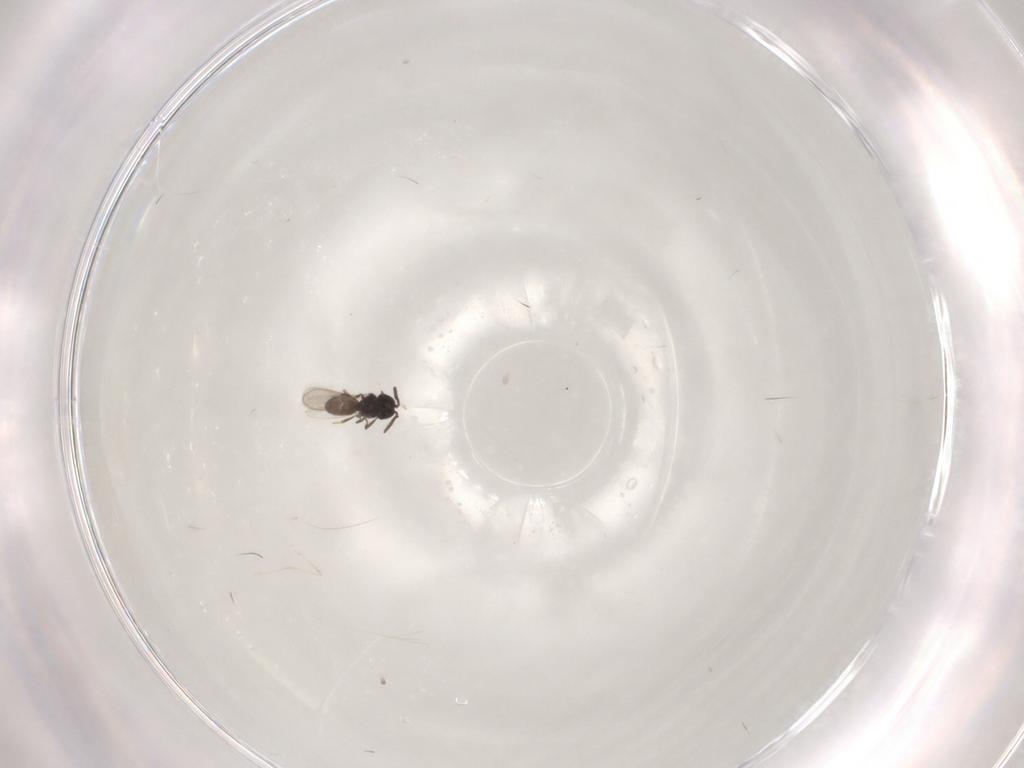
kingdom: Animalia
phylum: Arthropoda
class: Insecta
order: Hymenoptera
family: Scelionidae
